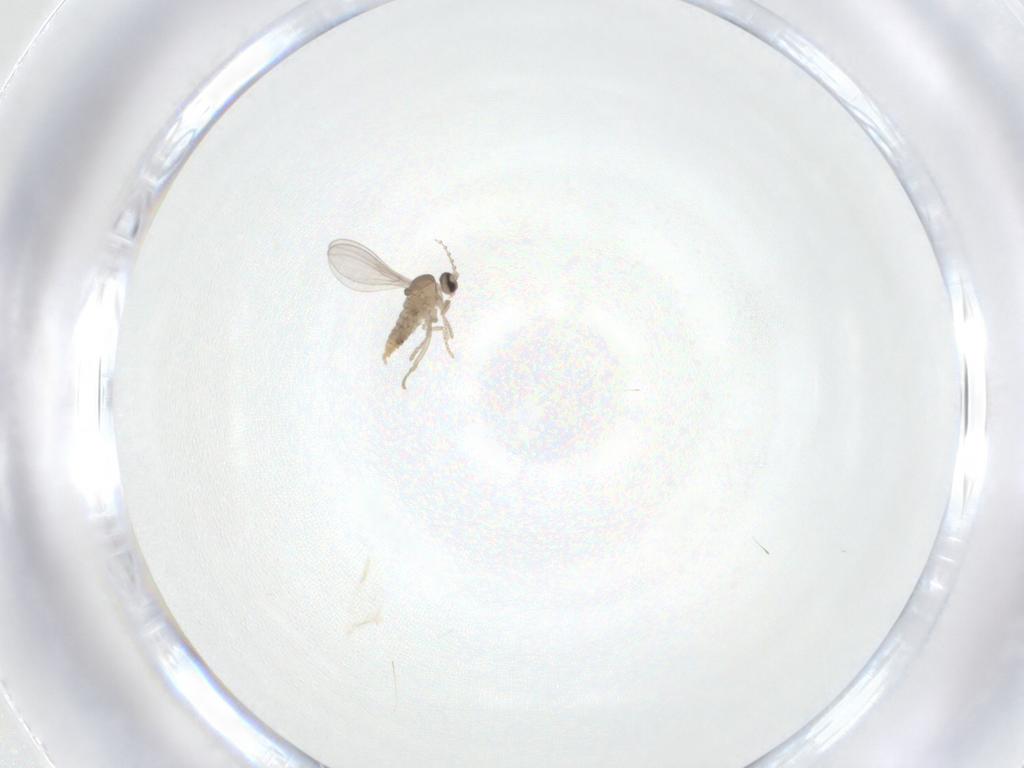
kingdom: Animalia
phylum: Arthropoda
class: Insecta
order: Diptera
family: Cecidomyiidae
